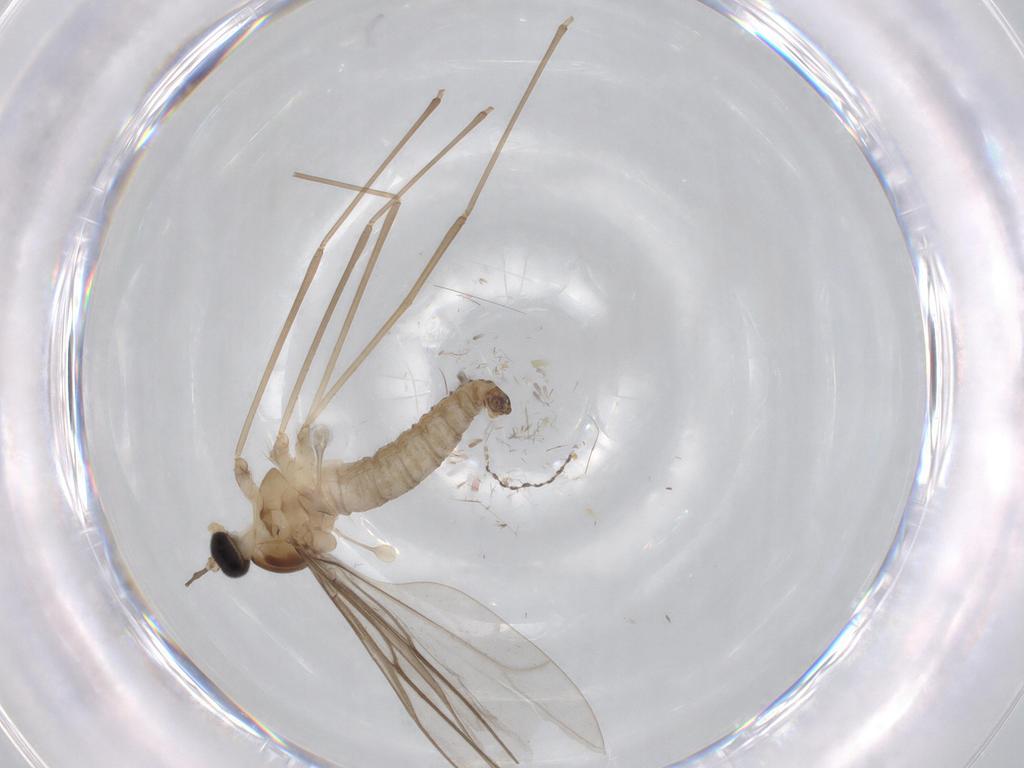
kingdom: Animalia
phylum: Arthropoda
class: Insecta
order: Diptera
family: Cecidomyiidae
